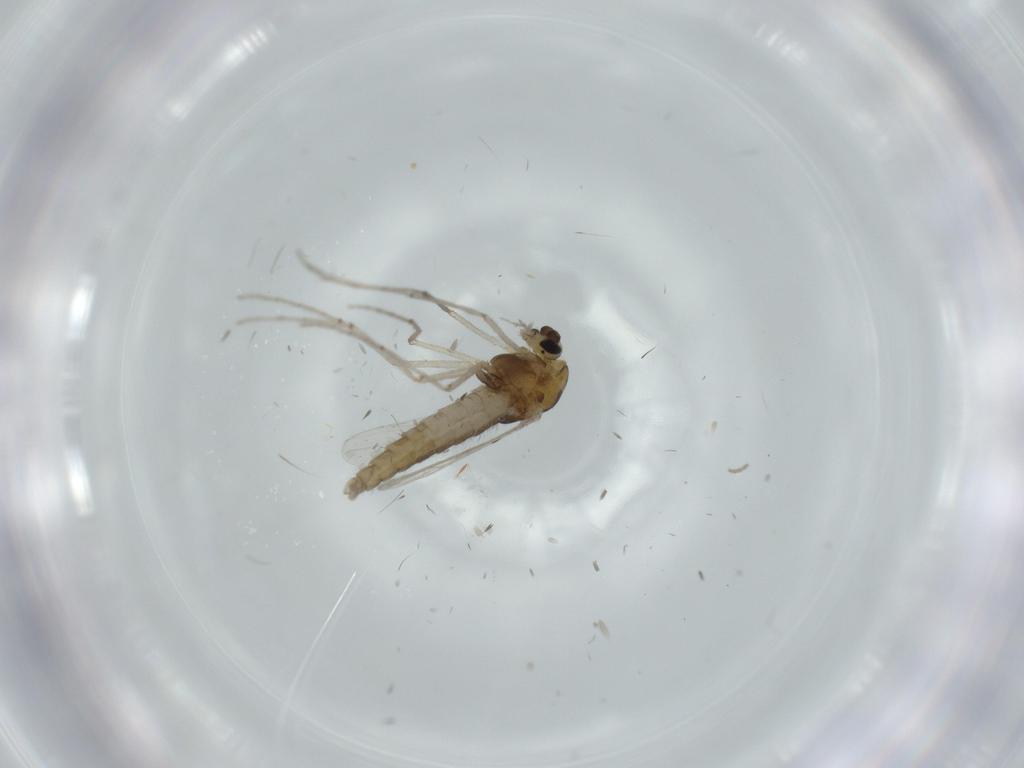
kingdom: Animalia
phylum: Arthropoda
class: Insecta
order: Diptera
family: Chironomidae
